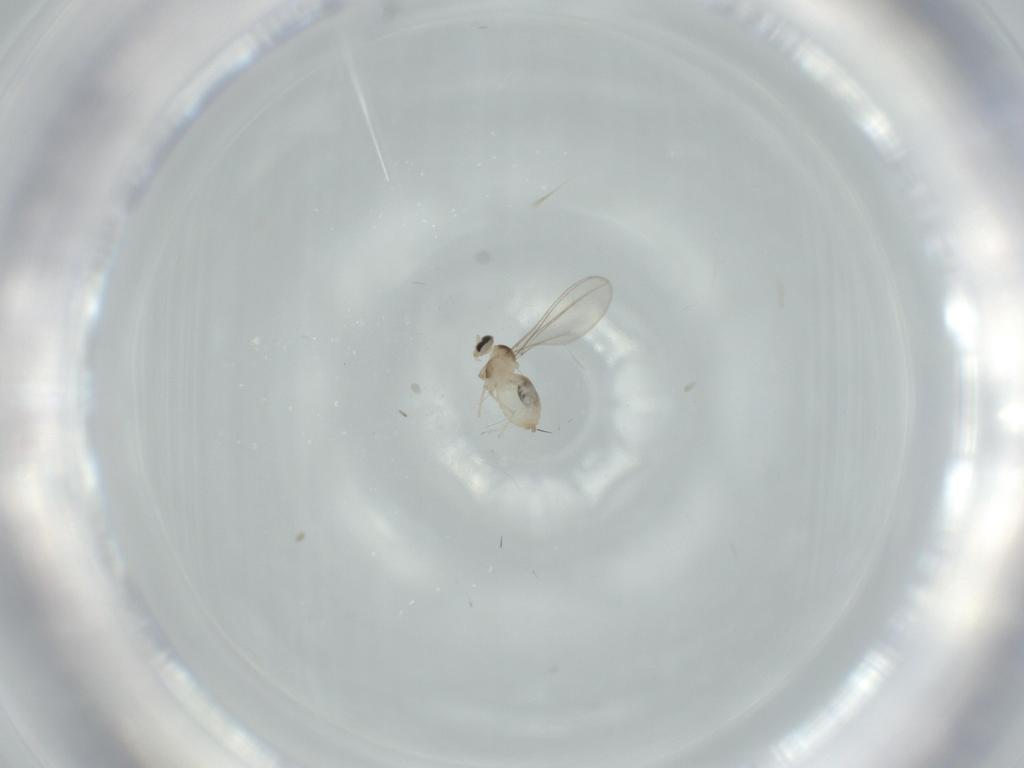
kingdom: Animalia
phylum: Arthropoda
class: Insecta
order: Diptera
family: Cecidomyiidae
